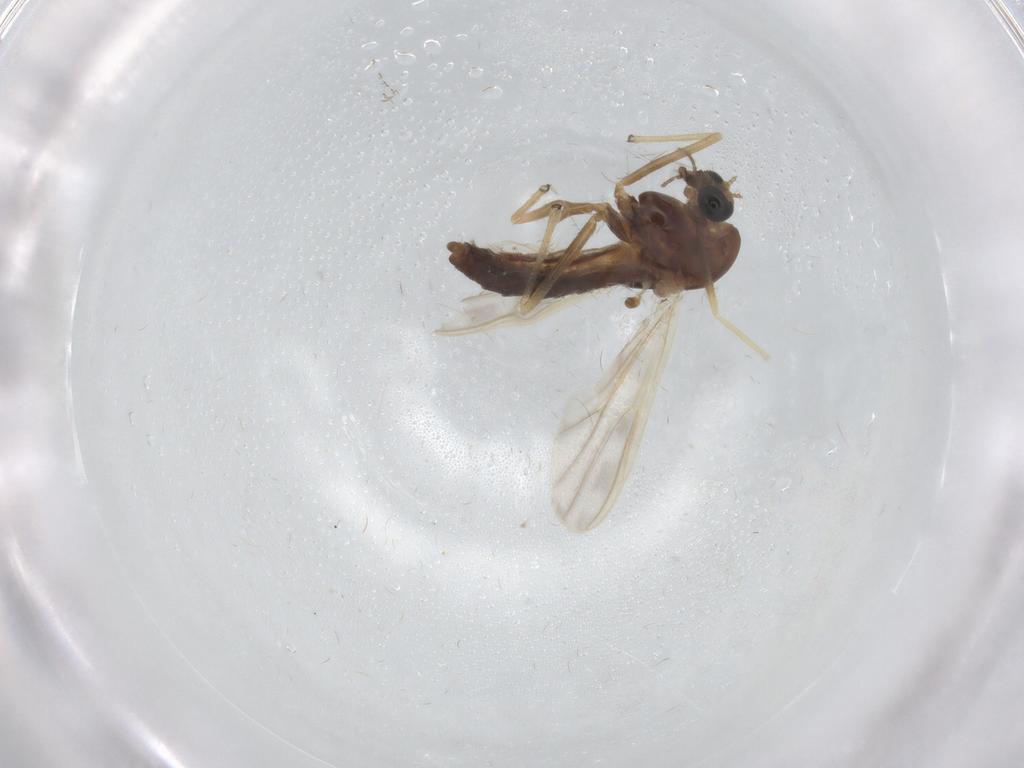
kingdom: Animalia
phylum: Arthropoda
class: Insecta
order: Diptera
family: Chironomidae
